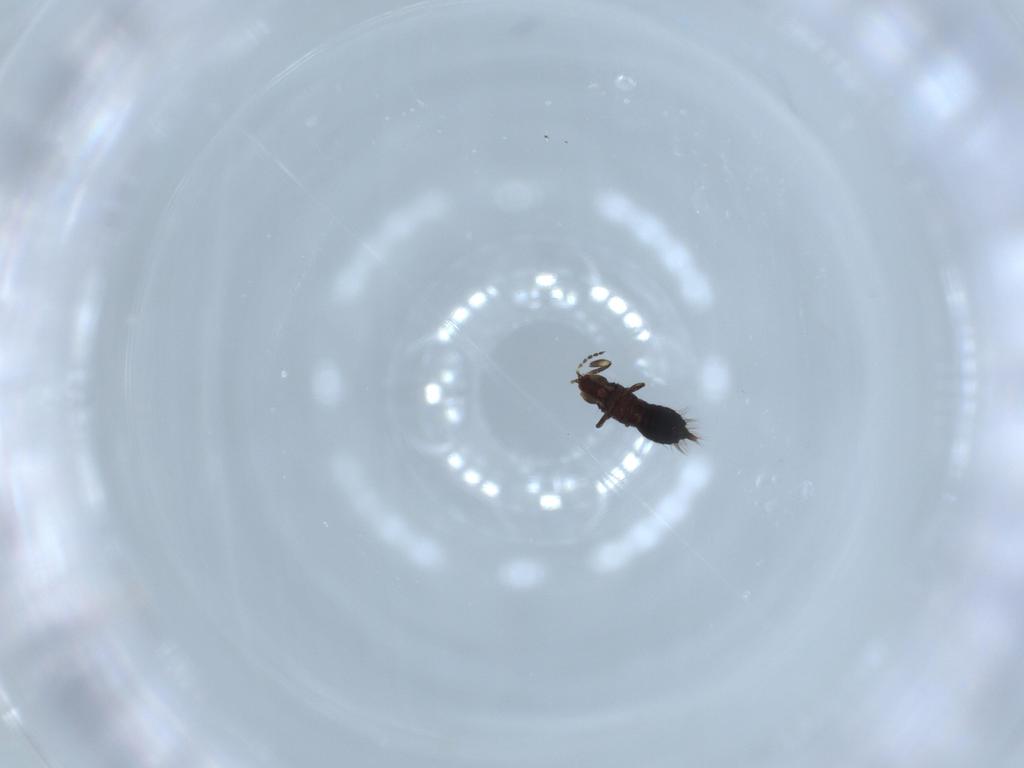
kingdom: Animalia
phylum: Arthropoda
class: Insecta
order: Thysanoptera
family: Phlaeothripidae
